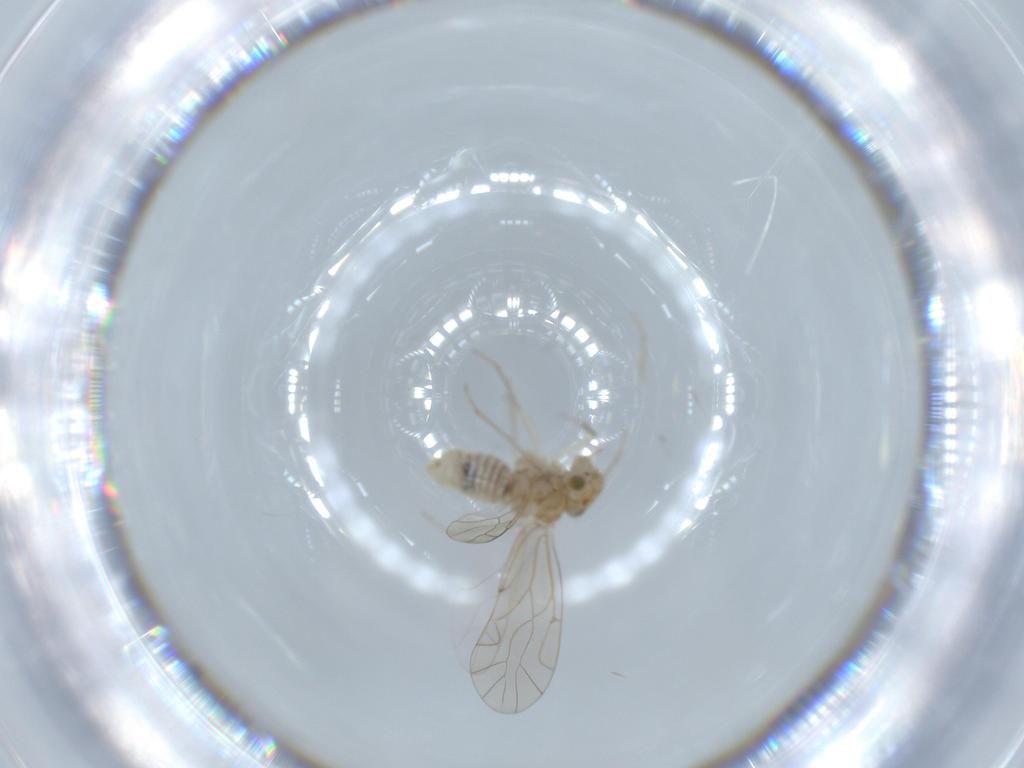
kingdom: Animalia
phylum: Arthropoda
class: Insecta
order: Psocodea
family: Lachesillidae
